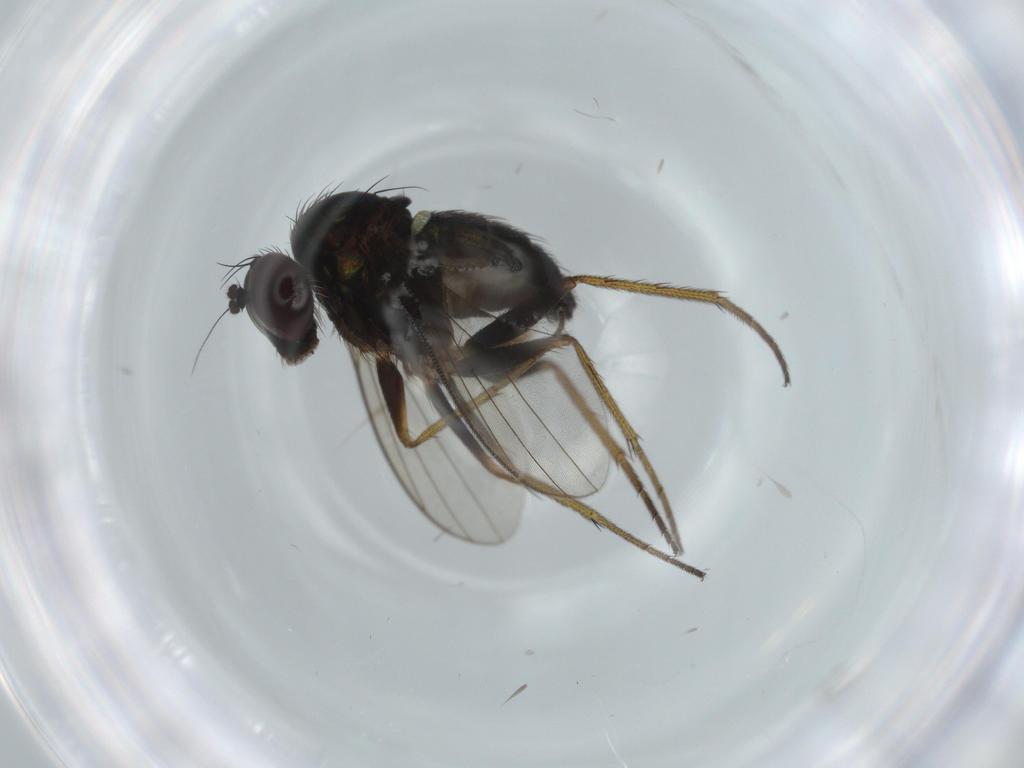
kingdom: Animalia
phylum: Arthropoda
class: Insecta
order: Diptera
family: Sciaridae
